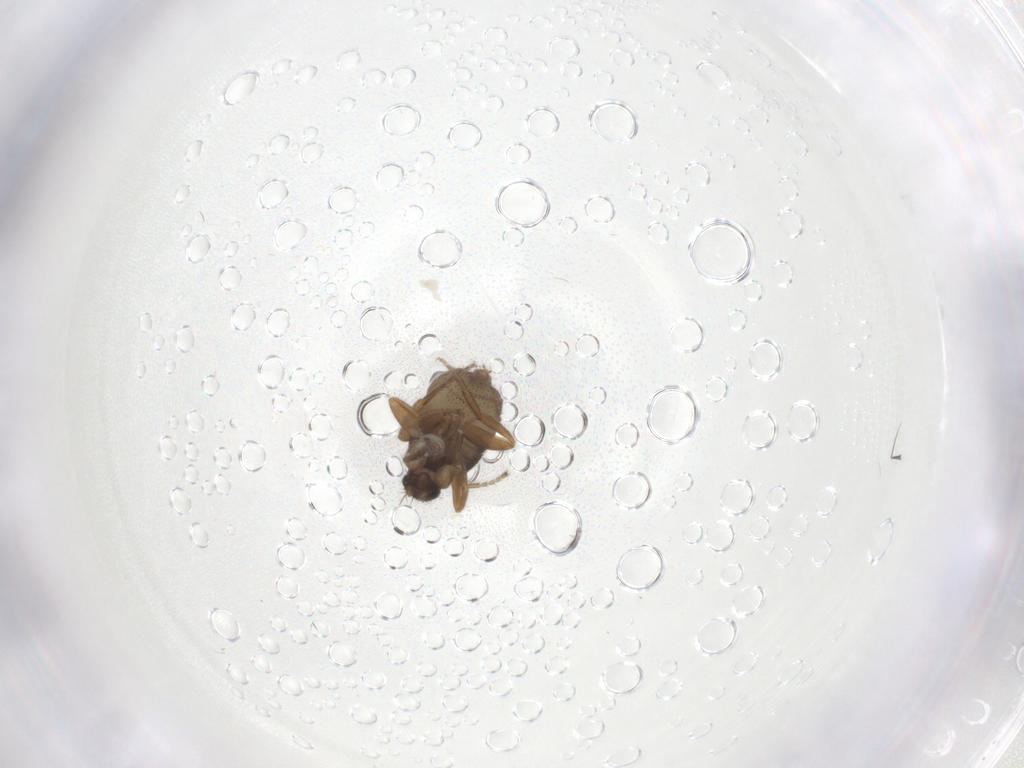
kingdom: Animalia
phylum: Arthropoda
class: Insecta
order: Diptera
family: Phoridae
